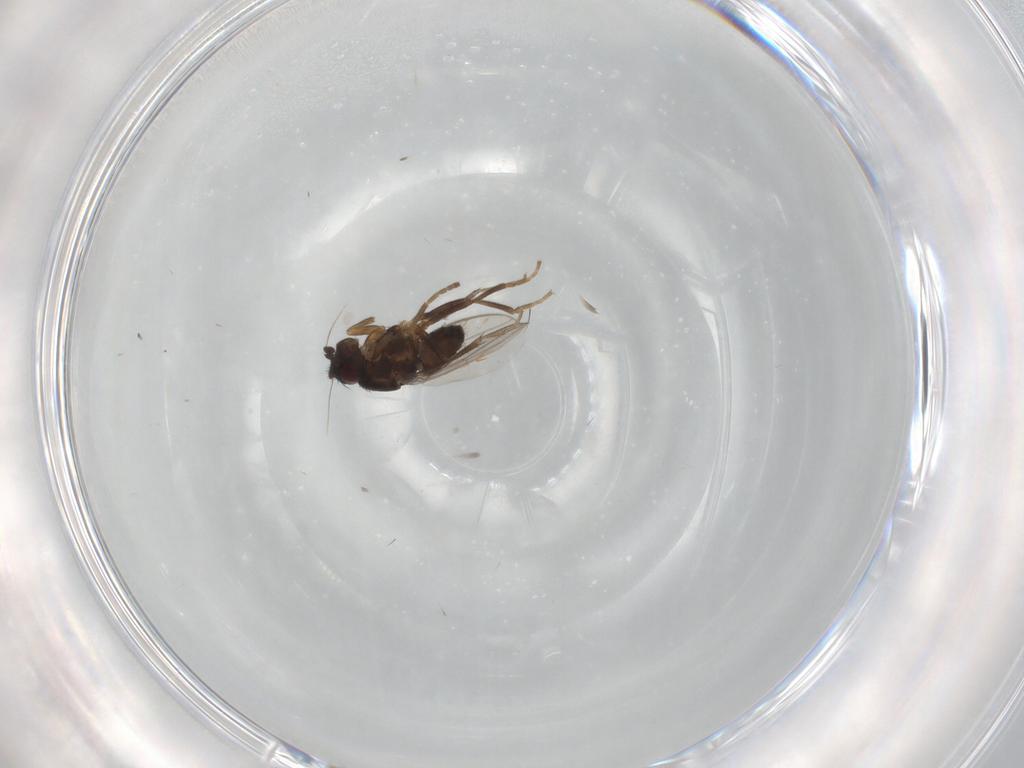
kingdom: Animalia
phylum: Arthropoda
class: Insecta
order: Diptera
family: Sphaeroceridae
